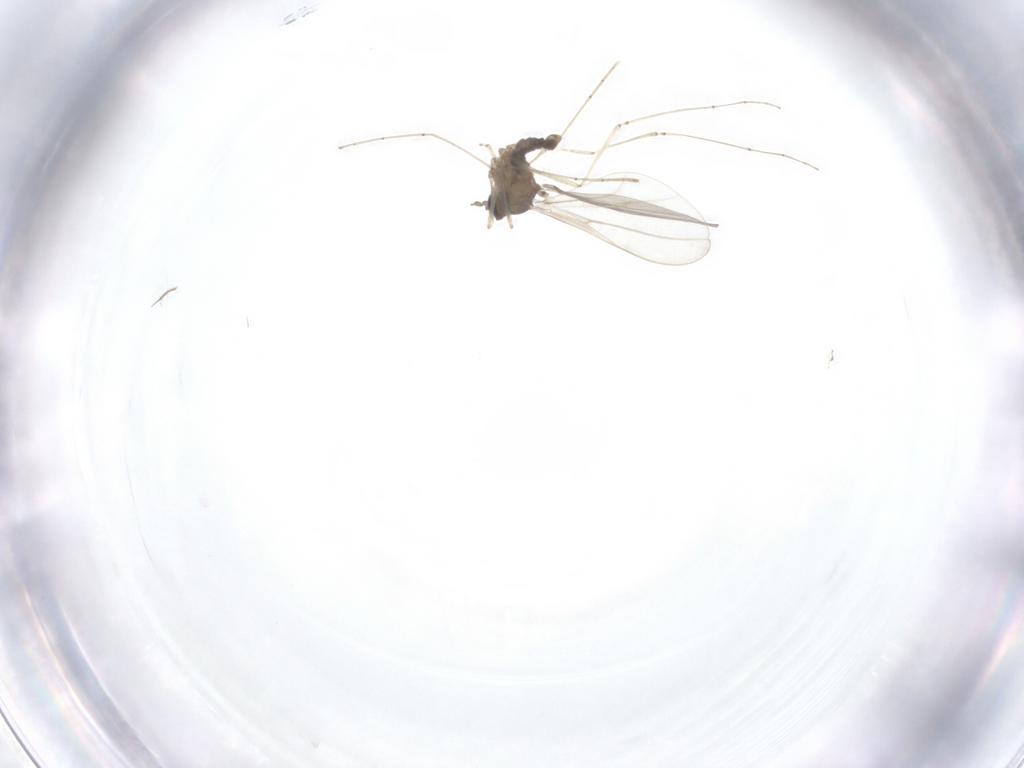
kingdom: Animalia
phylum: Arthropoda
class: Insecta
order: Diptera
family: Cecidomyiidae
